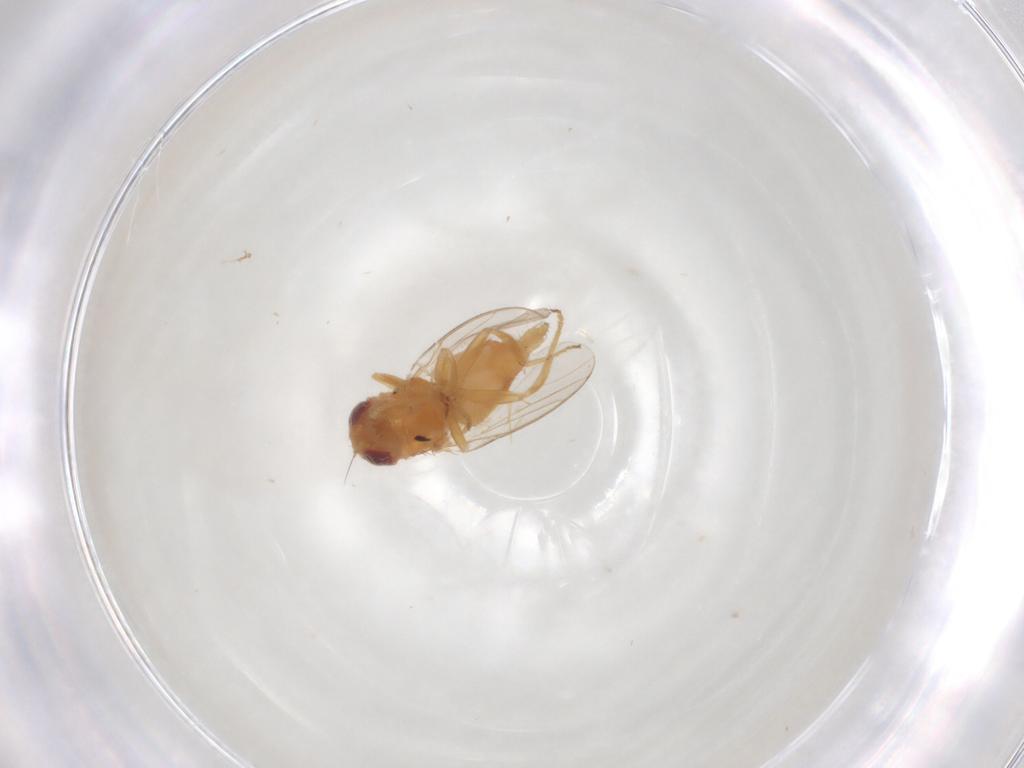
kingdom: Animalia
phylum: Arthropoda
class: Insecta
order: Diptera
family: Chloropidae
